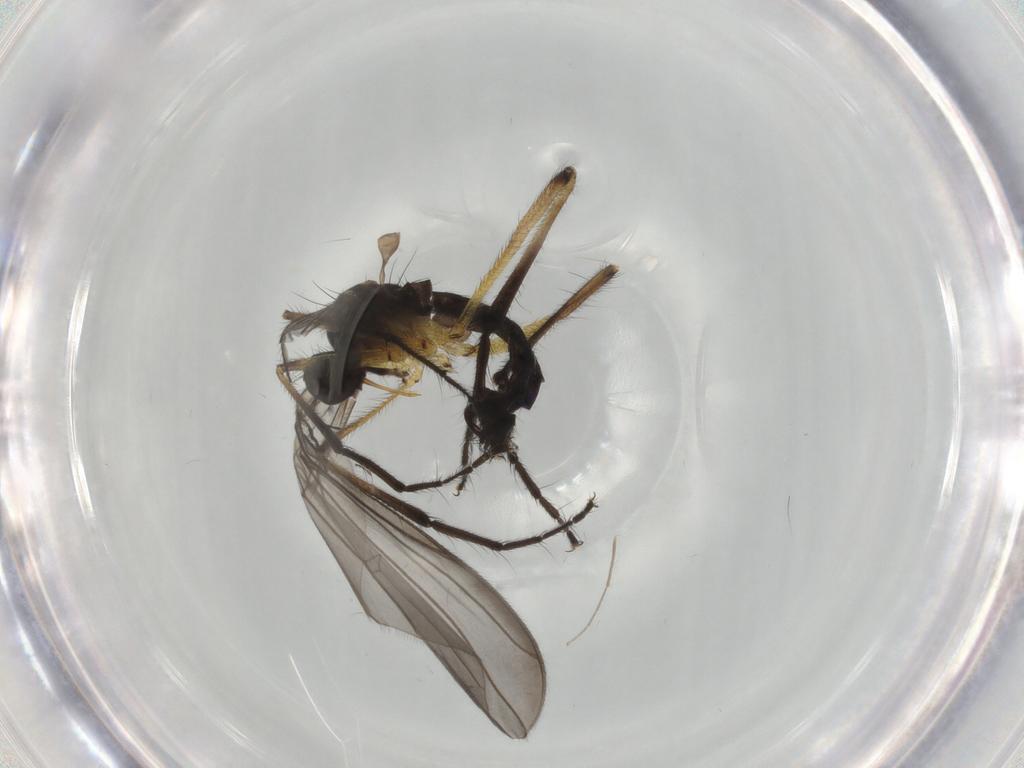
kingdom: Animalia
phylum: Arthropoda
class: Insecta
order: Diptera
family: Empididae
